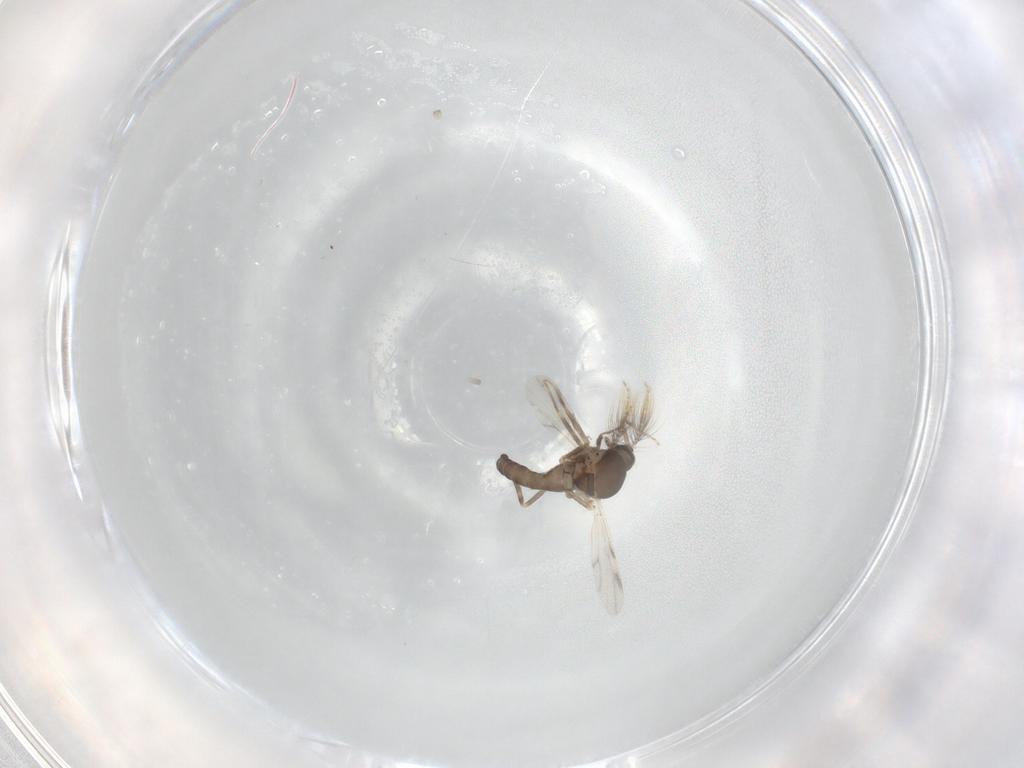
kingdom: Animalia
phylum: Arthropoda
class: Insecta
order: Diptera
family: Ceratopogonidae
